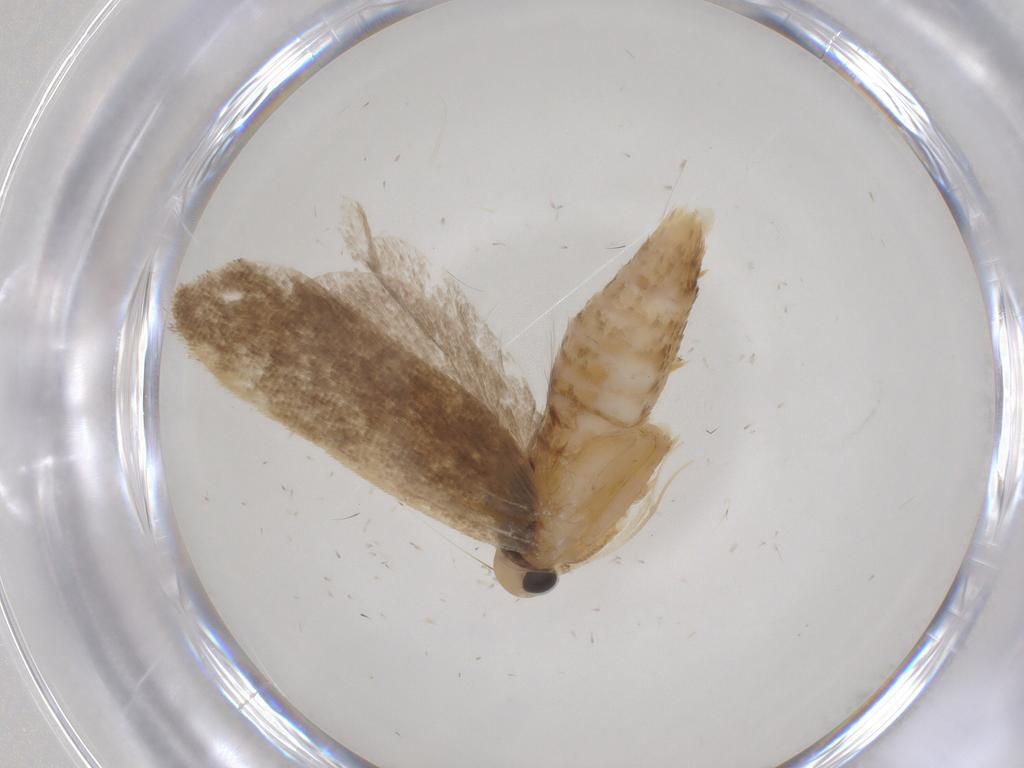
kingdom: Animalia
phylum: Arthropoda
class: Insecta
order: Lepidoptera
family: Gelechiidae
